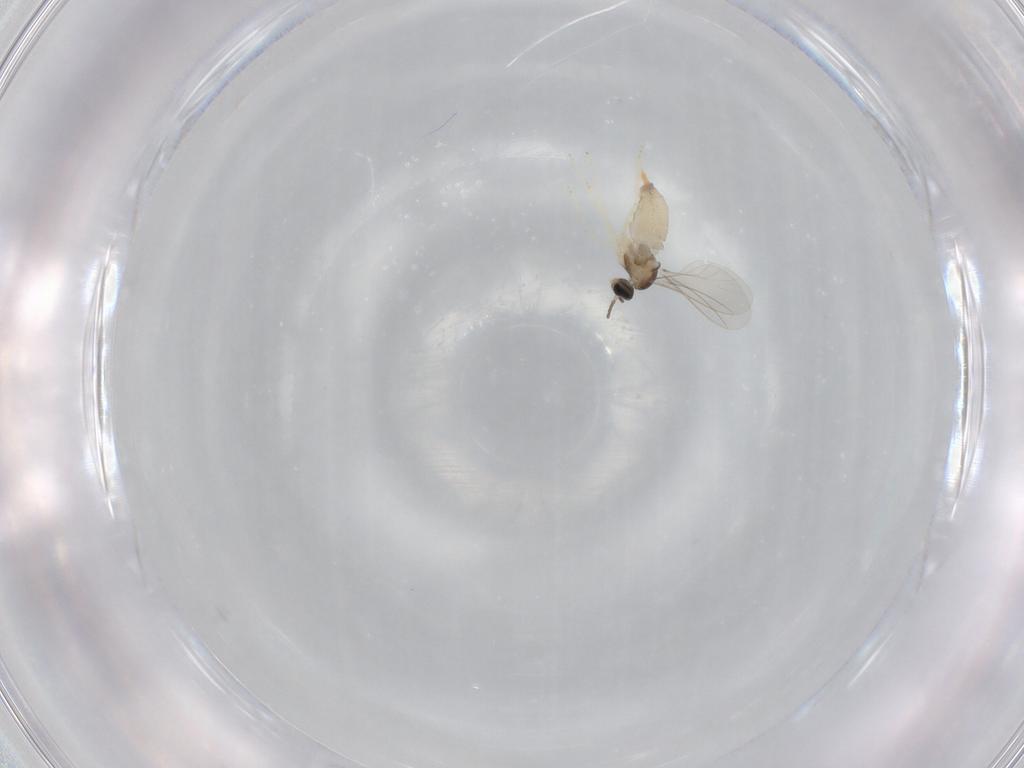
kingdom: Animalia
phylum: Arthropoda
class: Insecta
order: Diptera
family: Cecidomyiidae
